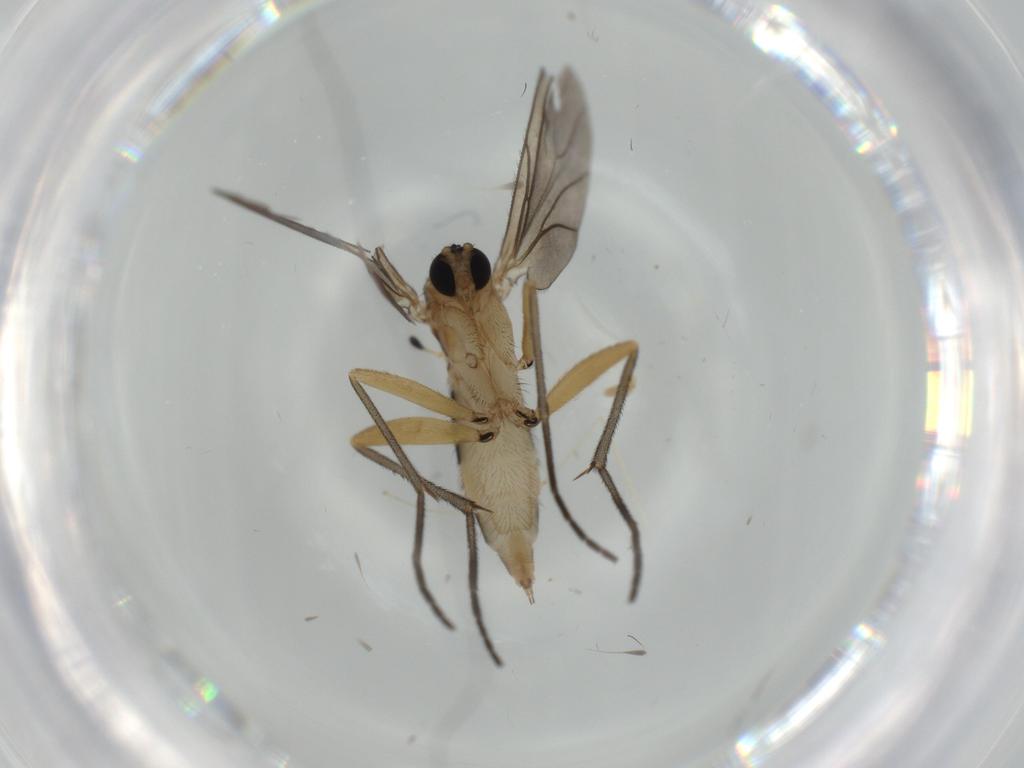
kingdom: Animalia
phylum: Arthropoda
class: Insecta
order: Diptera
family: Sciaridae
